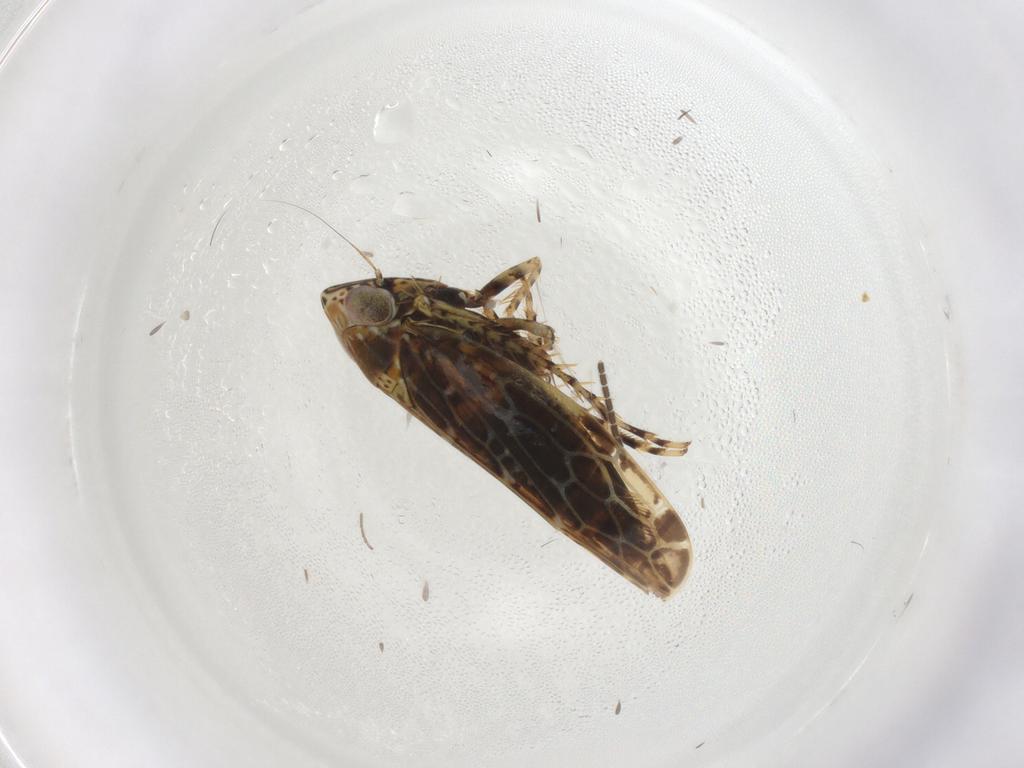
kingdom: Animalia
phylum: Arthropoda
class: Insecta
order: Hemiptera
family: Cicadellidae
